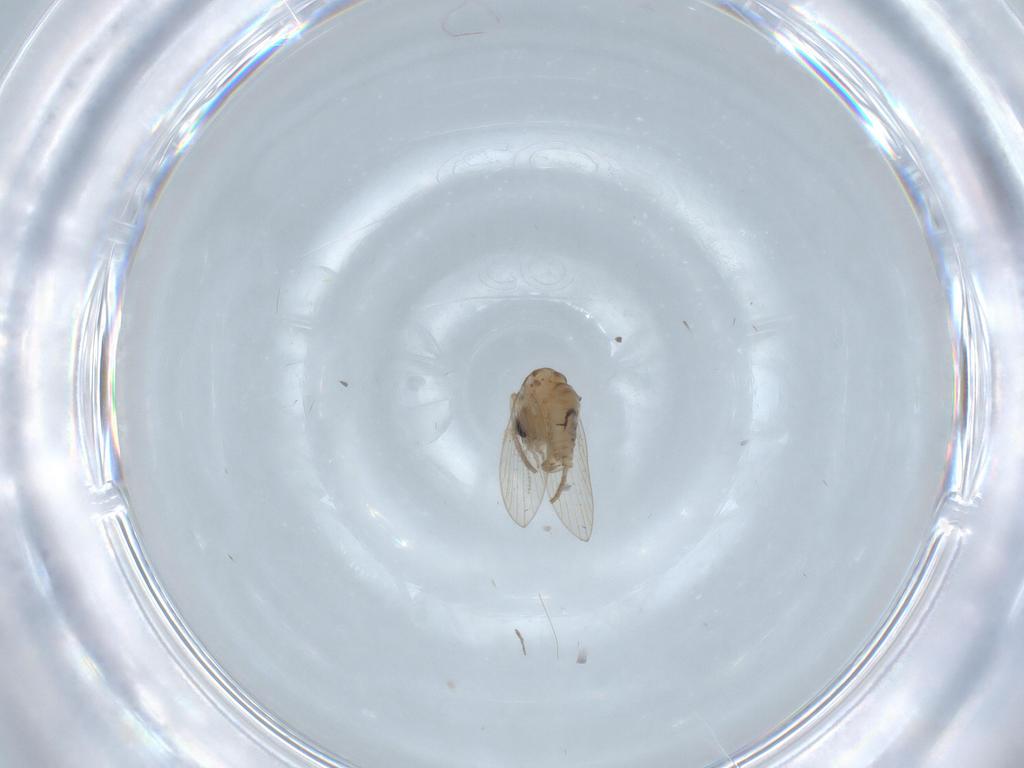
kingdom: Animalia
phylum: Arthropoda
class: Insecta
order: Diptera
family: Psychodidae
